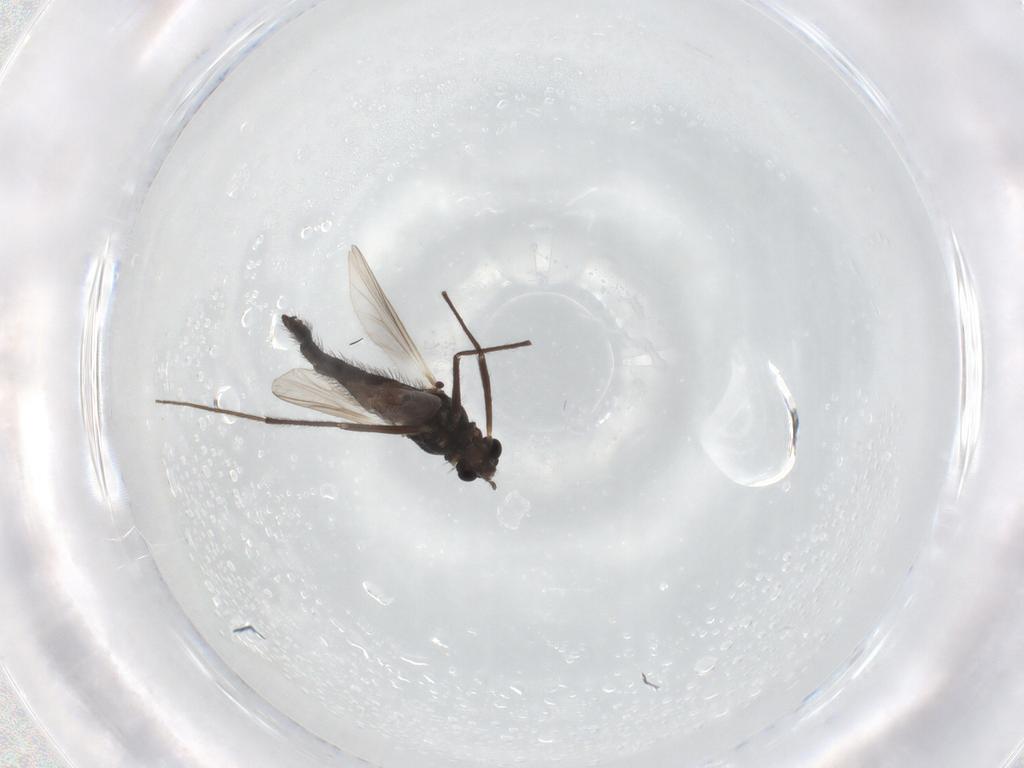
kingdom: Animalia
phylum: Arthropoda
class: Insecta
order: Diptera
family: Chironomidae
